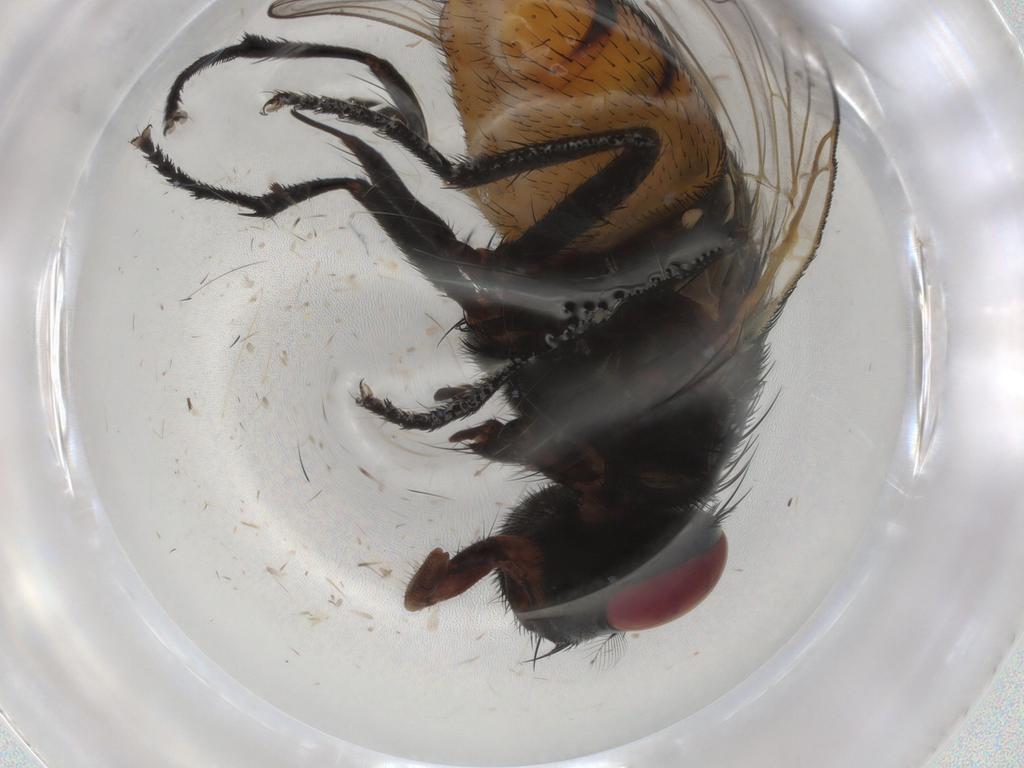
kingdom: Animalia
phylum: Arthropoda
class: Insecta
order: Diptera
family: Glossinidae
